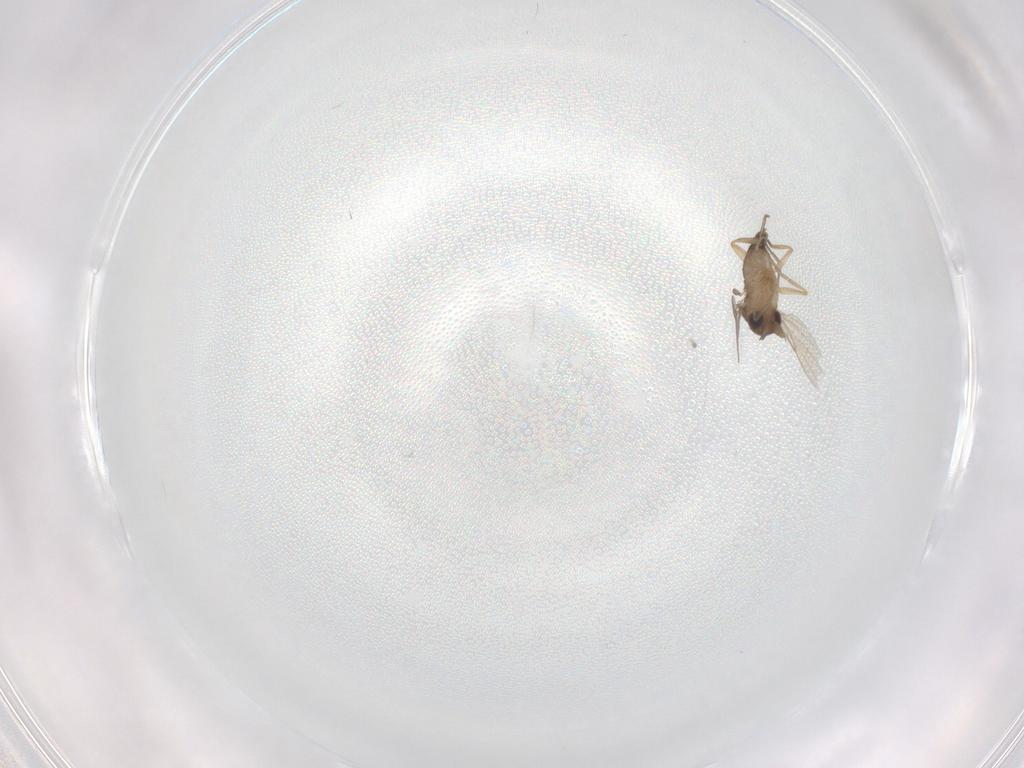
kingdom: Animalia
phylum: Arthropoda
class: Insecta
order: Diptera
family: Phoridae
